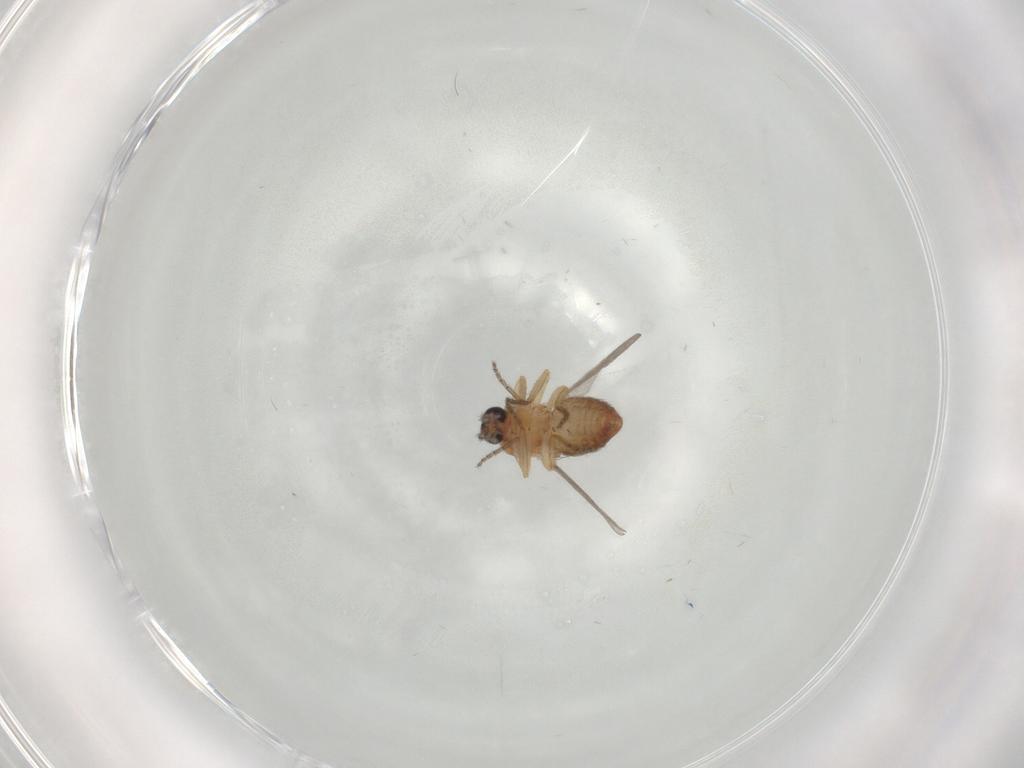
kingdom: Animalia
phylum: Arthropoda
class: Insecta
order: Diptera
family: Ceratopogonidae
